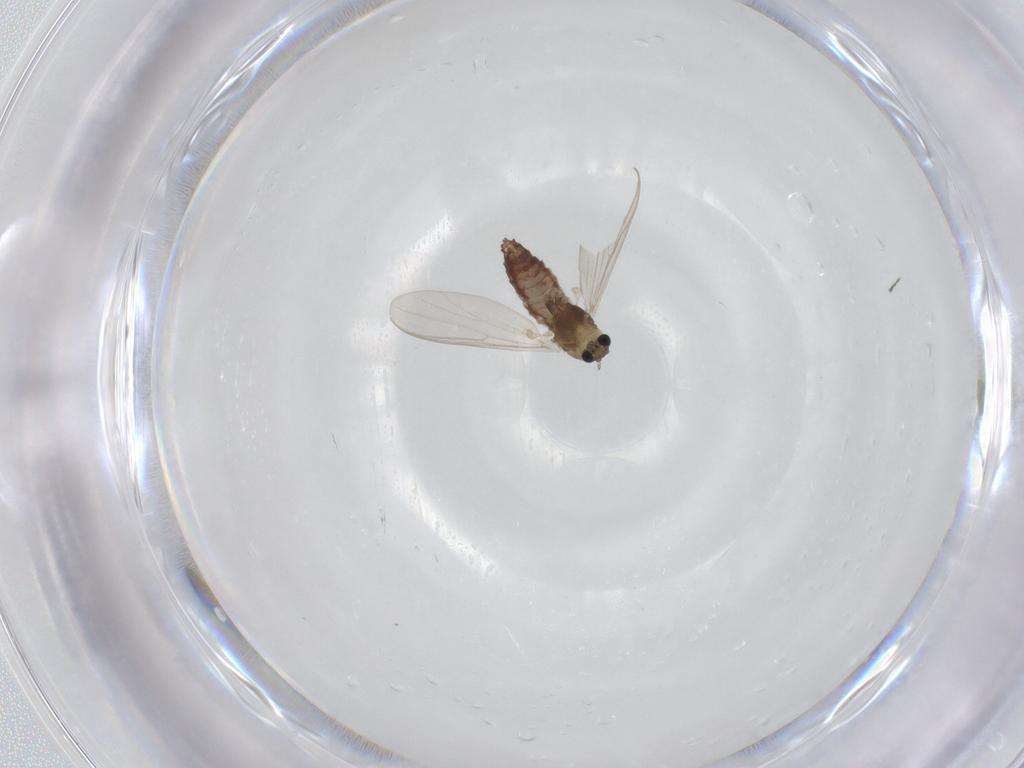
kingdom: Animalia
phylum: Arthropoda
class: Insecta
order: Diptera
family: Chironomidae
